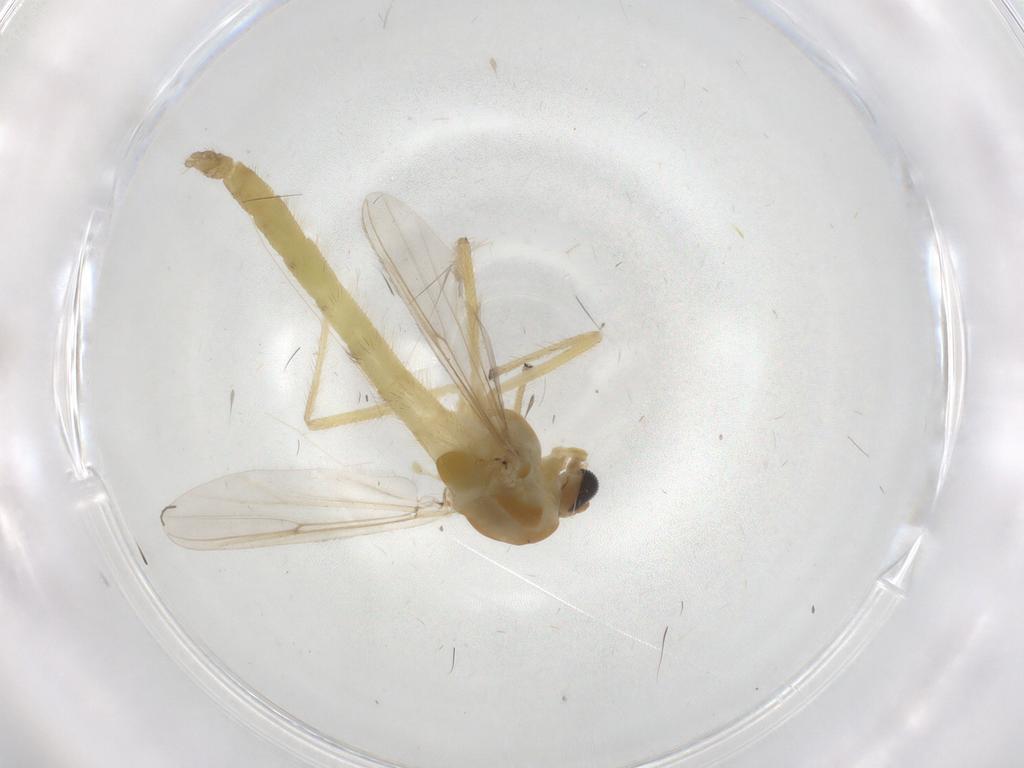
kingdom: Animalia
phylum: Arthropoda
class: Insecta
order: Diptera
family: Chironomidae
